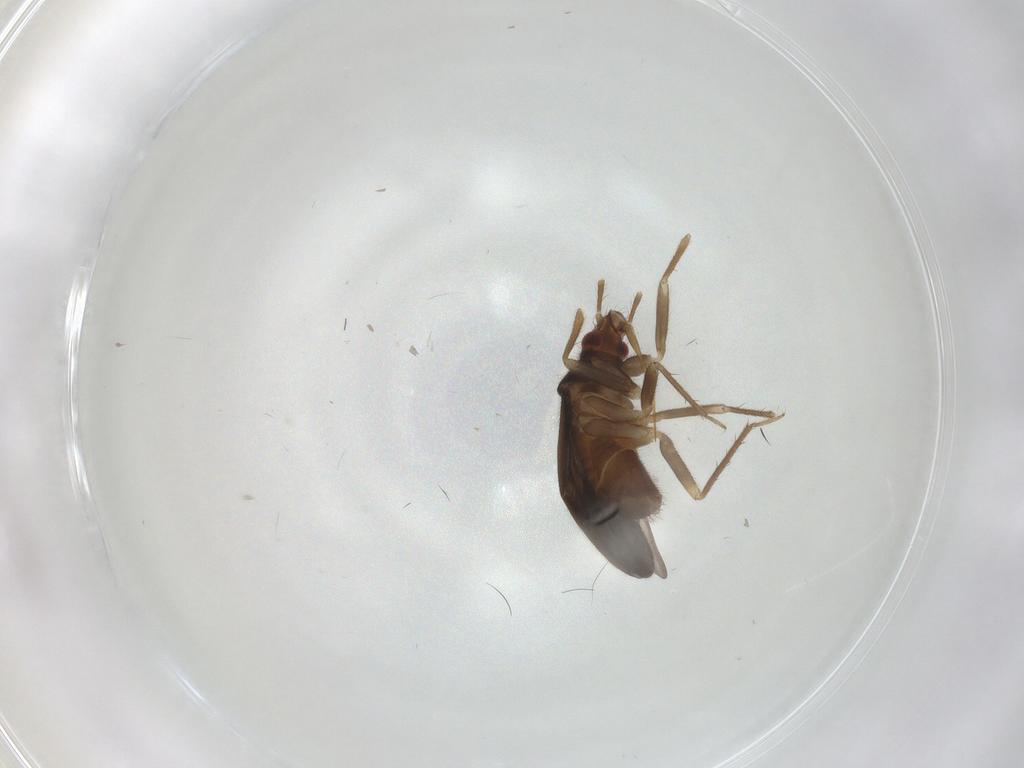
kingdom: Animalia
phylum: Arthropoda
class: Insecta
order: Hemiptera
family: Ceratocombidae
